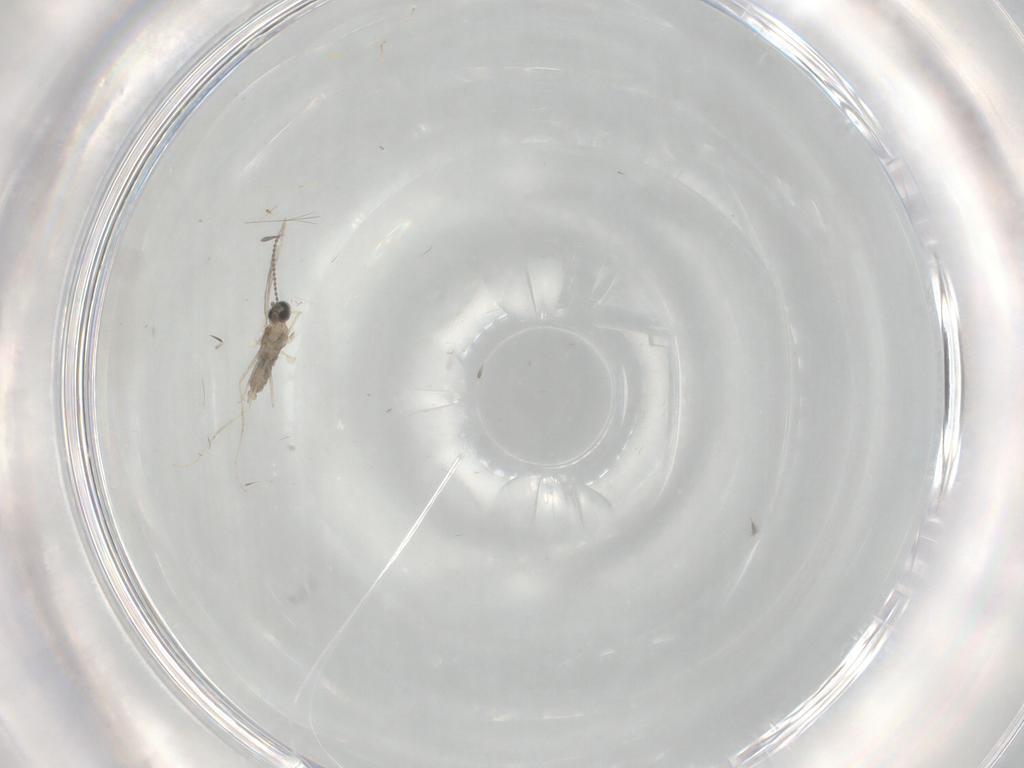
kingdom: Animalia
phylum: Arthropoda
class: Insecta
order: Diptera
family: Cecidomyiidae
